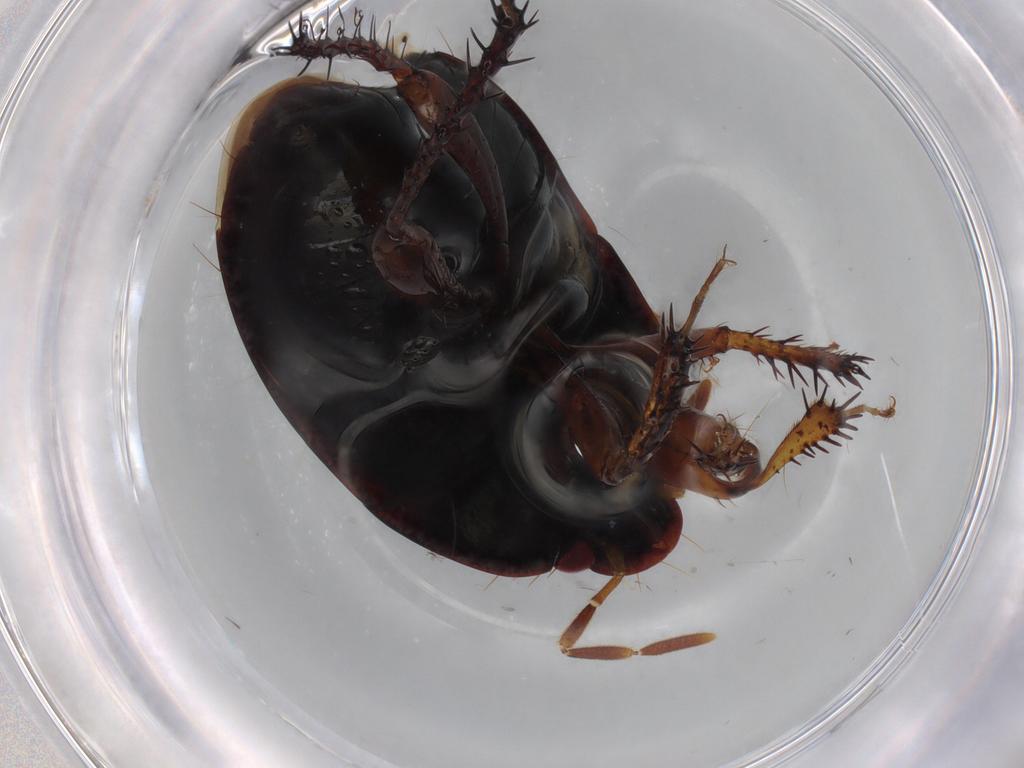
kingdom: Animalia
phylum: Arthropoda
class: Insecta
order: Hemiptera
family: Cydnidae
